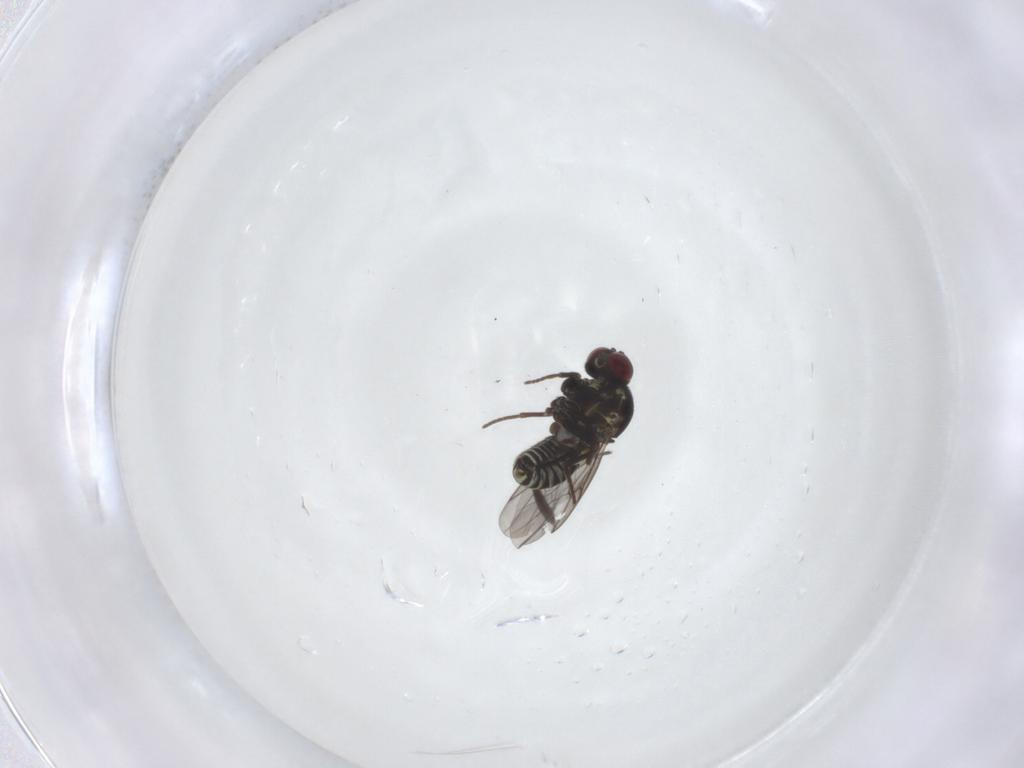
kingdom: Animalia
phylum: Arthropoda
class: Insecta
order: Diptera
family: Mythicomyiidae
